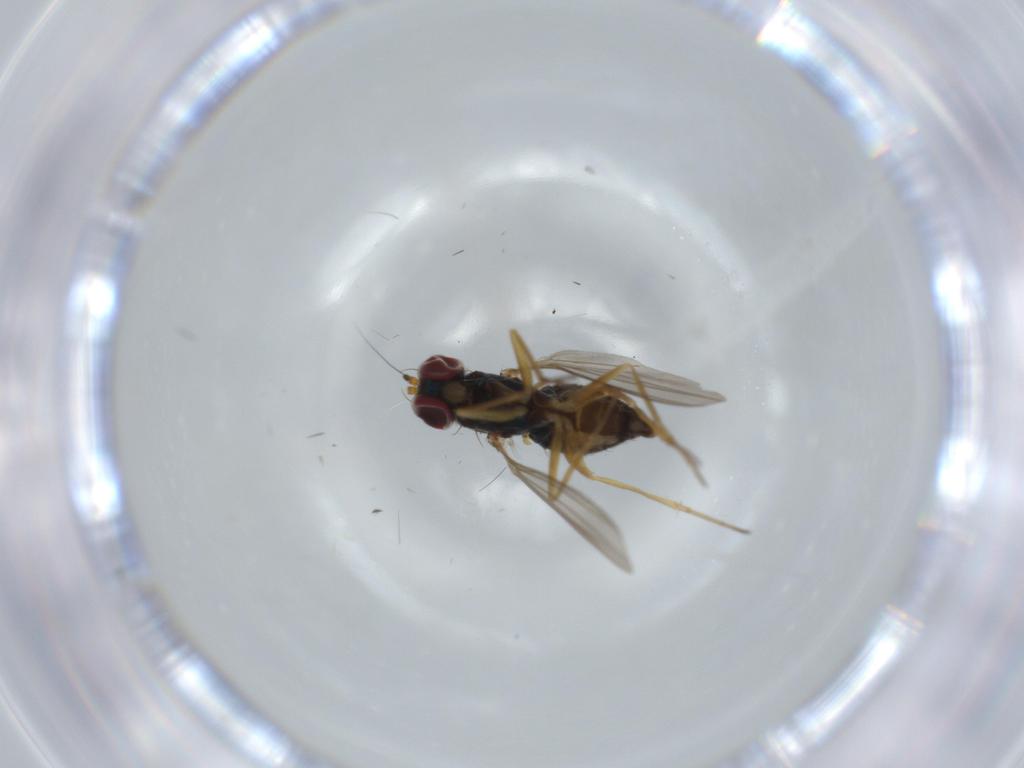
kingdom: Animalia
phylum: Arthropoda
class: Insecta
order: Diptera
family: Dolichopodidae
